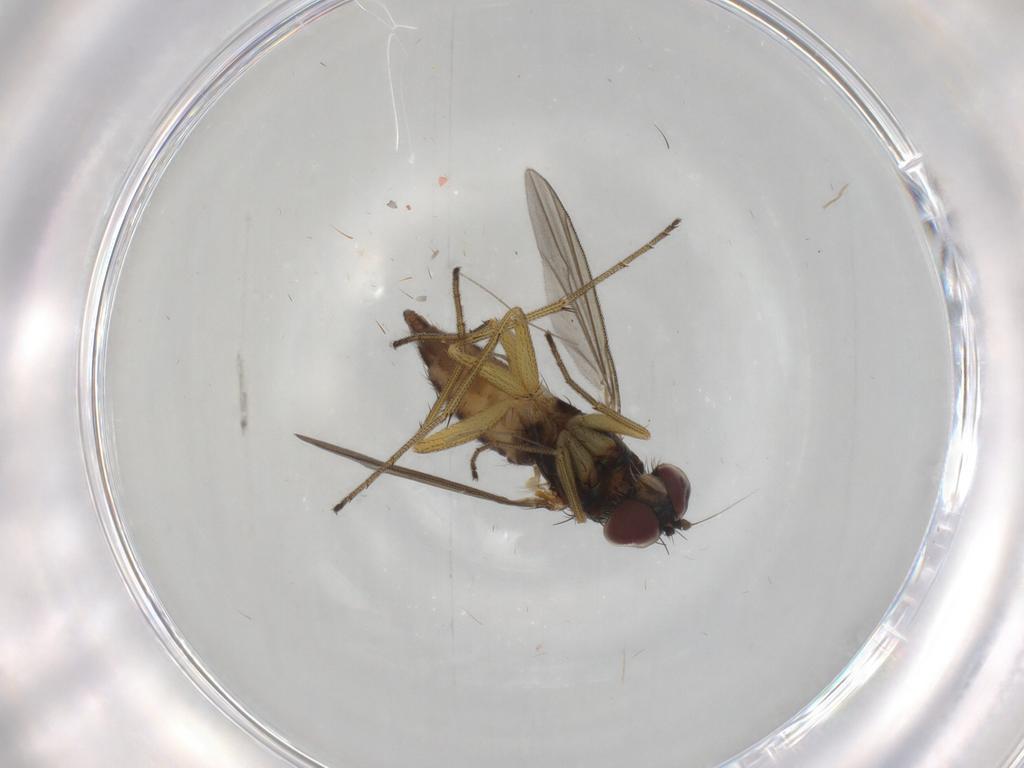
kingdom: Animalia
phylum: Arthropoda
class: Insecta
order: Diptera
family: Dolichopodidae
